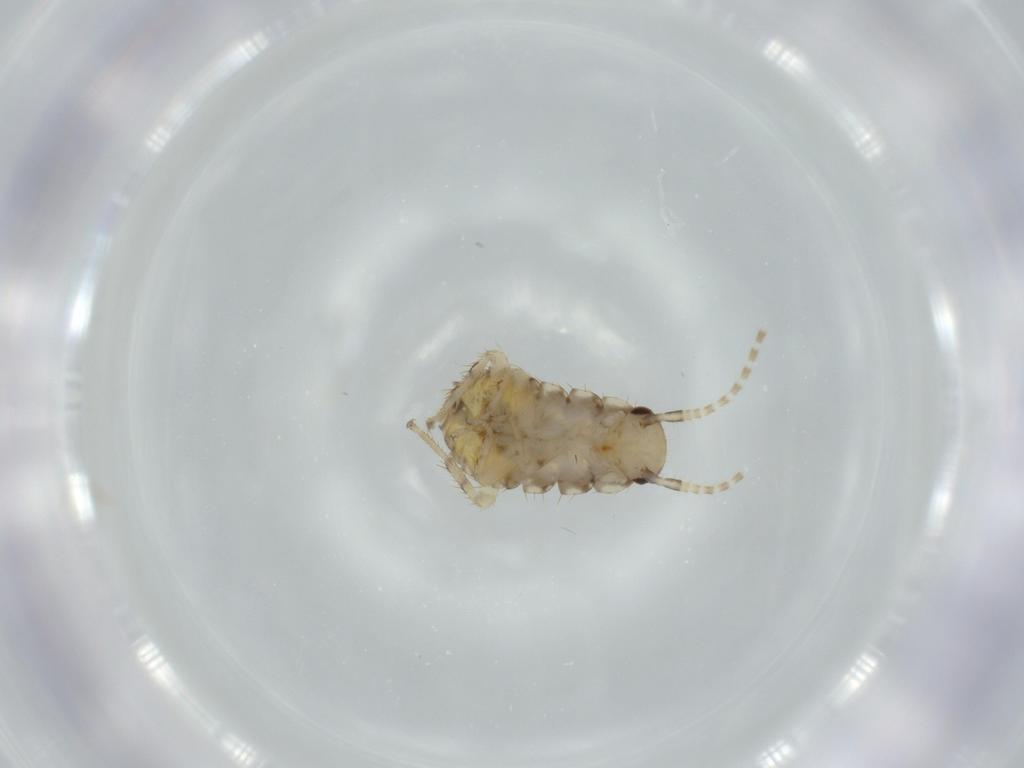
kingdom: Animalia
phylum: Arthropoda
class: Insecta
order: Blattodea
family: Ectobiidae
